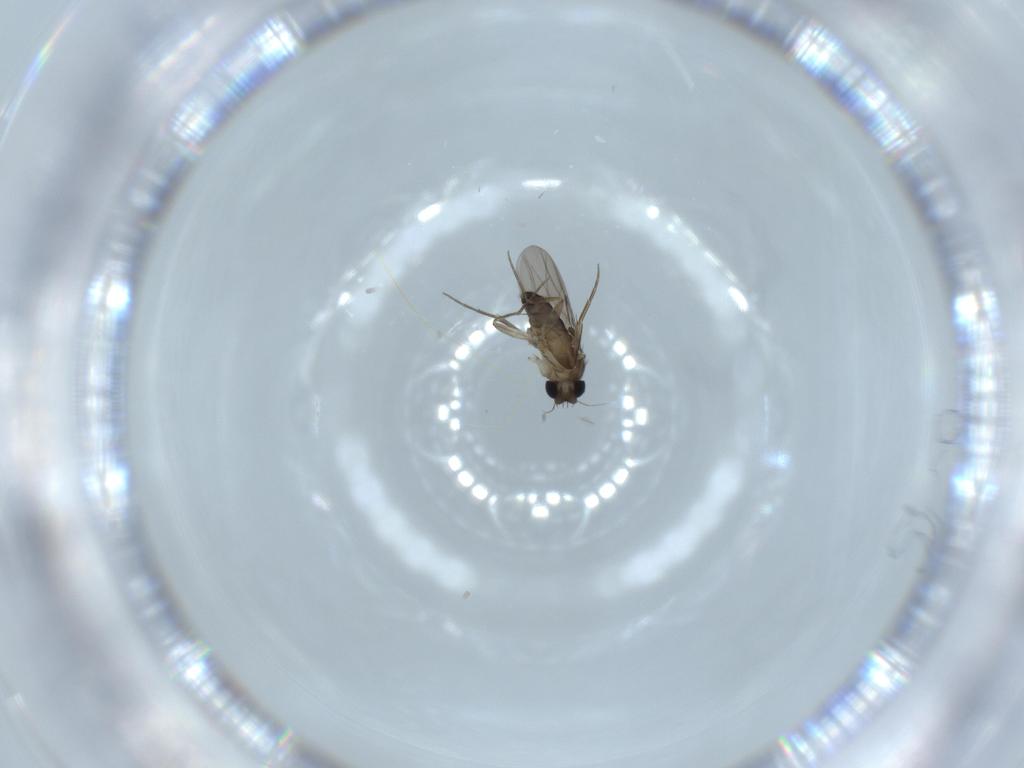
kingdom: Animalia
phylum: Arthropoda
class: Insecta
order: Diptera
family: Phoridae
